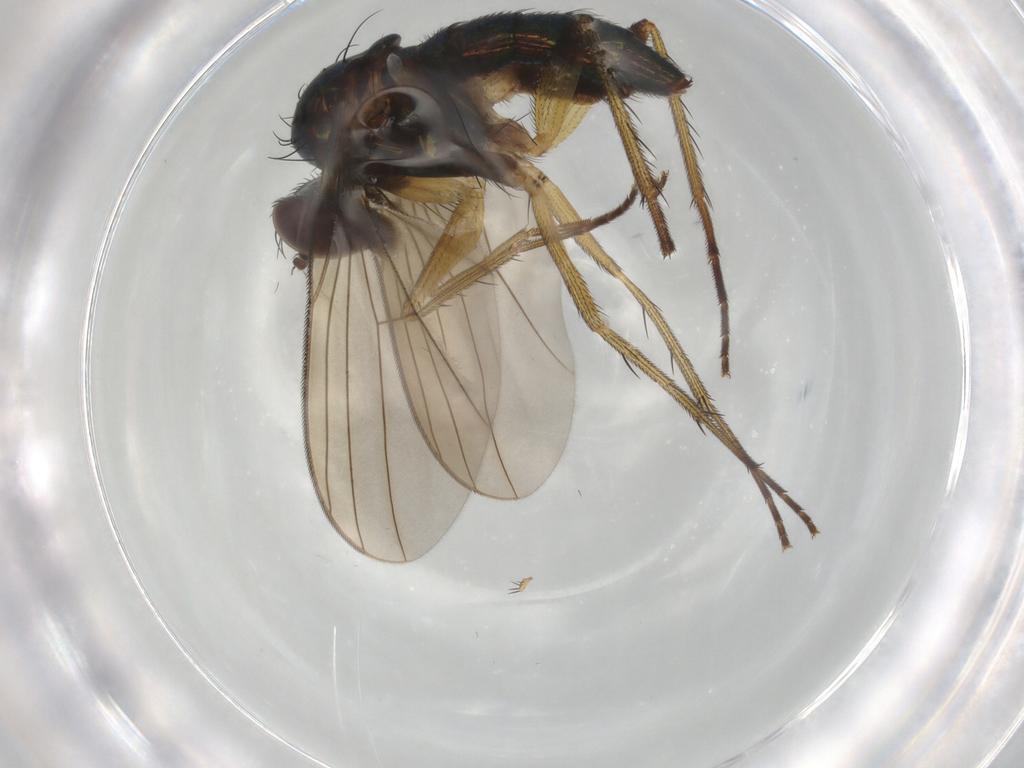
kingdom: Animalia
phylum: Arthropoda
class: Insecta
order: Diptera
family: Dolichopodidae
